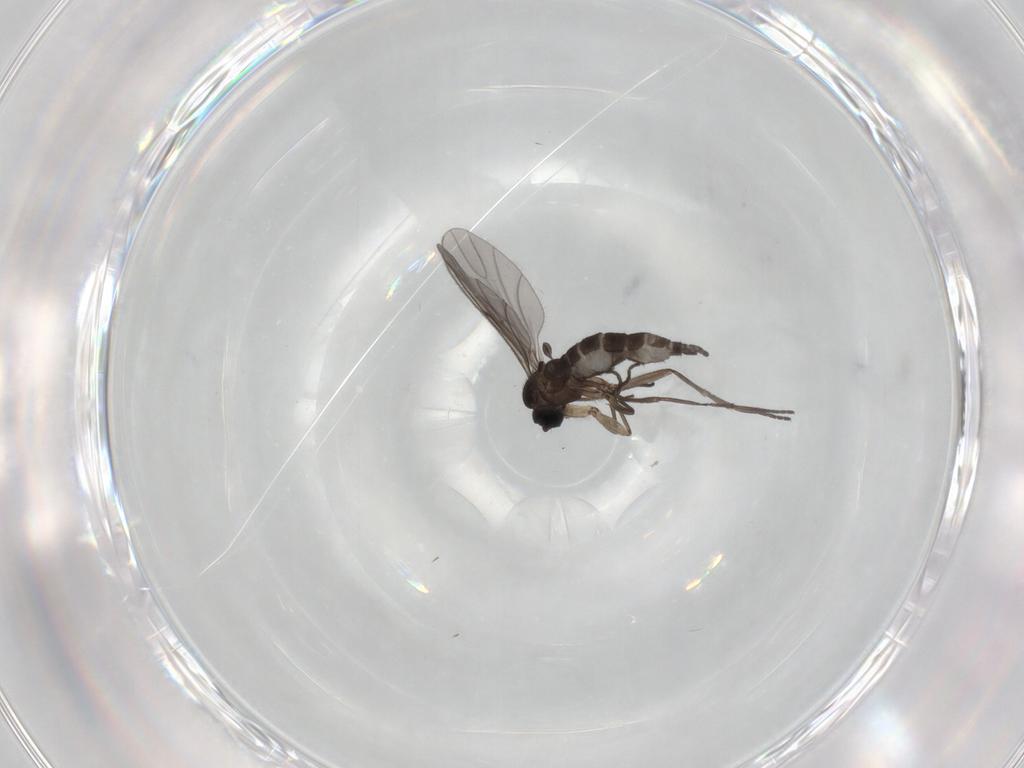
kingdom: Animalia
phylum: Arthropoda
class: Insecta
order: Diptera
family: Sciaridae
